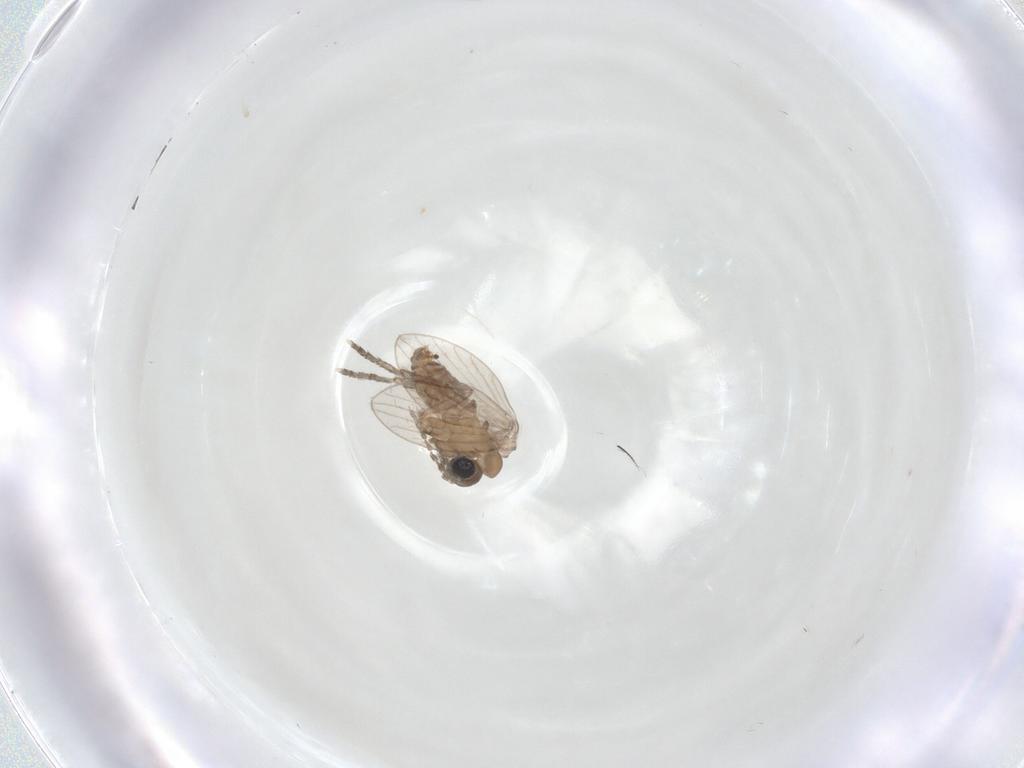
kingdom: Animalia
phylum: Arthropoda
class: Insecta
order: Diptera
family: Psychodidae
